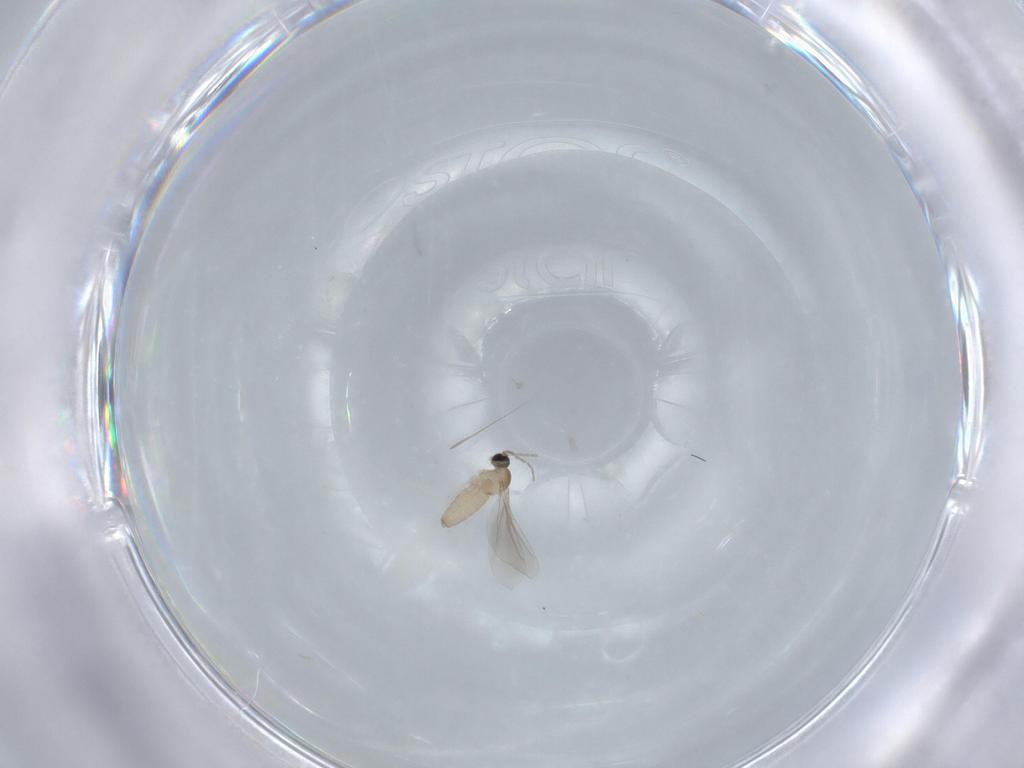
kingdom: Animalia
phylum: Arthropoda
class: Insecta
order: Diptera
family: Cecidomyiidae
